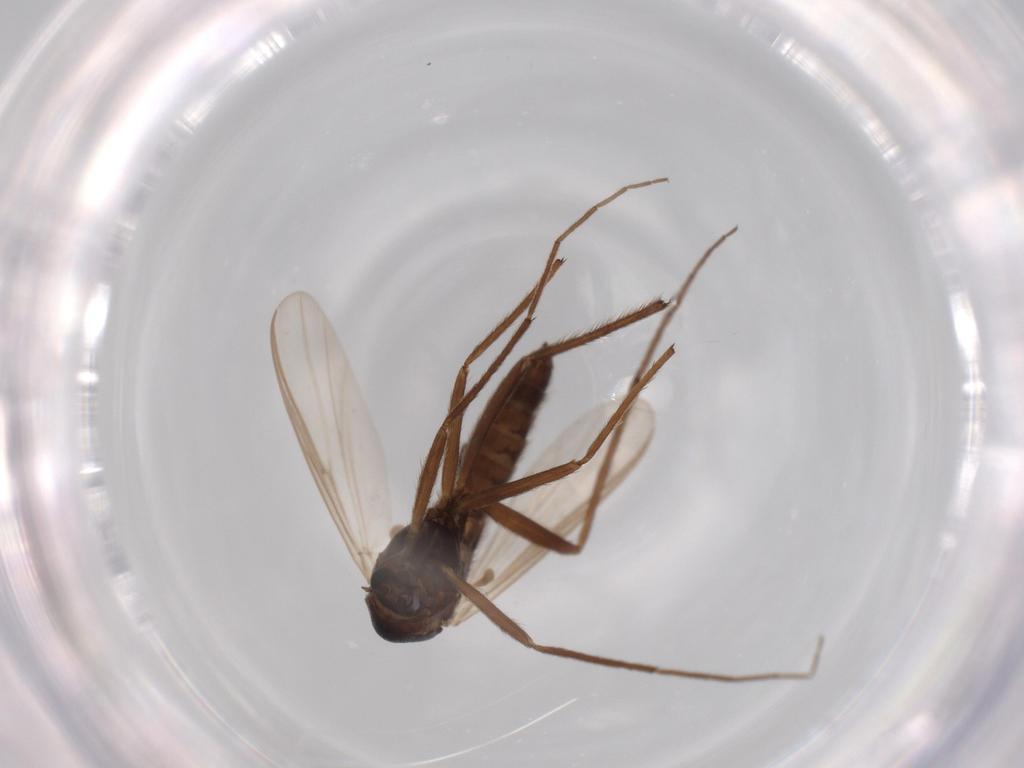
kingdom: Animalia
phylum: Arthropoda
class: Insecta
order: Diptera
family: Chironomidae
